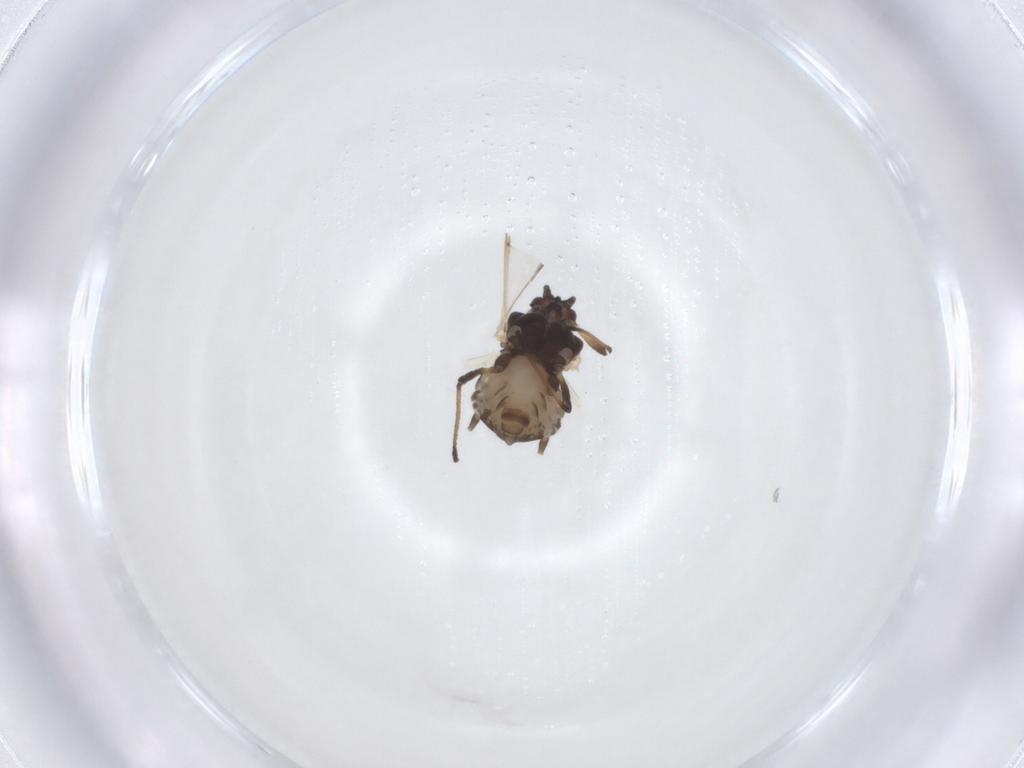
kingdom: Animalia
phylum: Arthropoda
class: Insecta
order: Hemiptera
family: Aphididae
